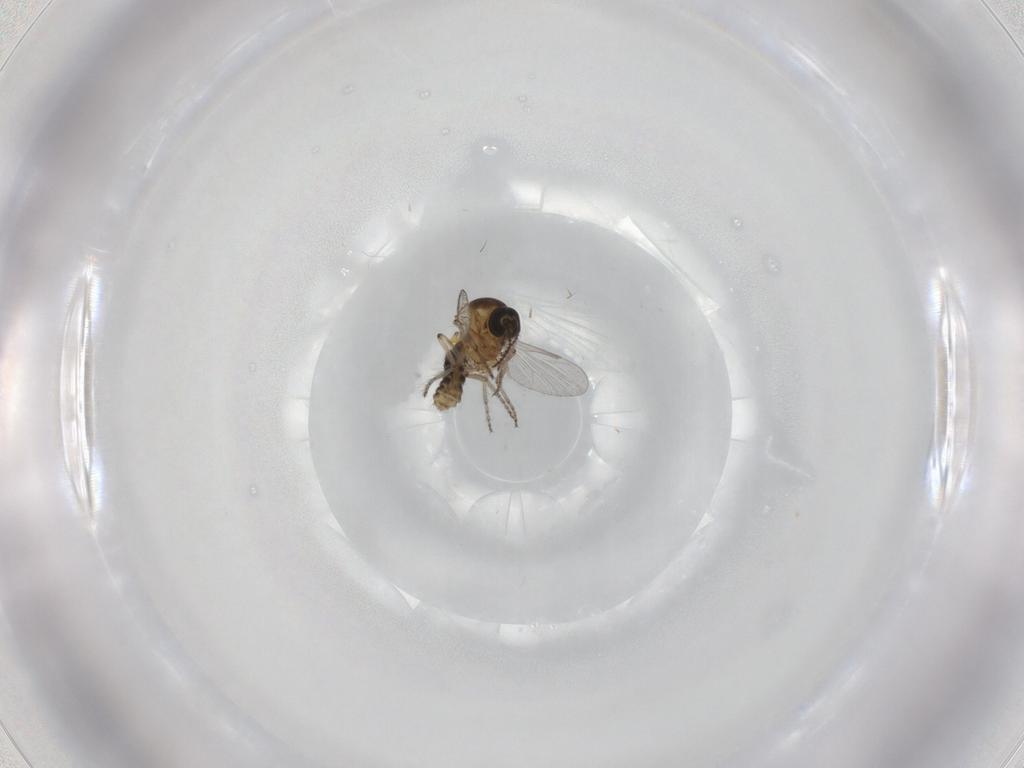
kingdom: Animalia
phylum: Arthropoda
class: Insecta
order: Diptera
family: Ceratopogonidae
